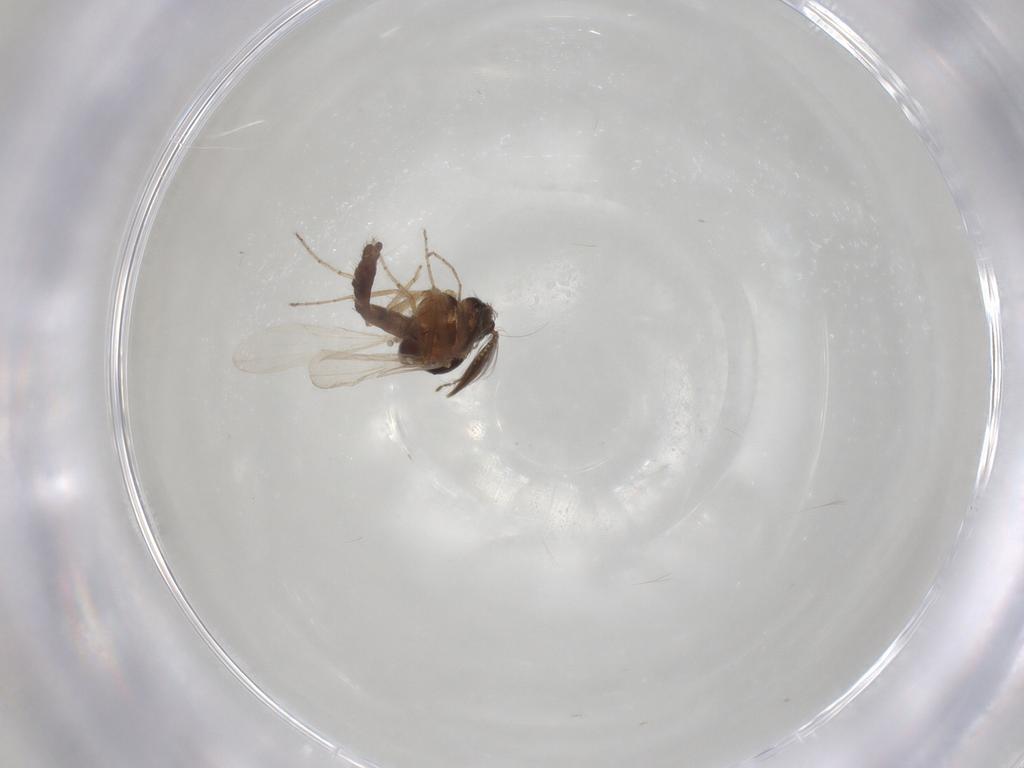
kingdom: Animalia
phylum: Arthropoda
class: Insecta
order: Diptera
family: Ceratopogonidae
